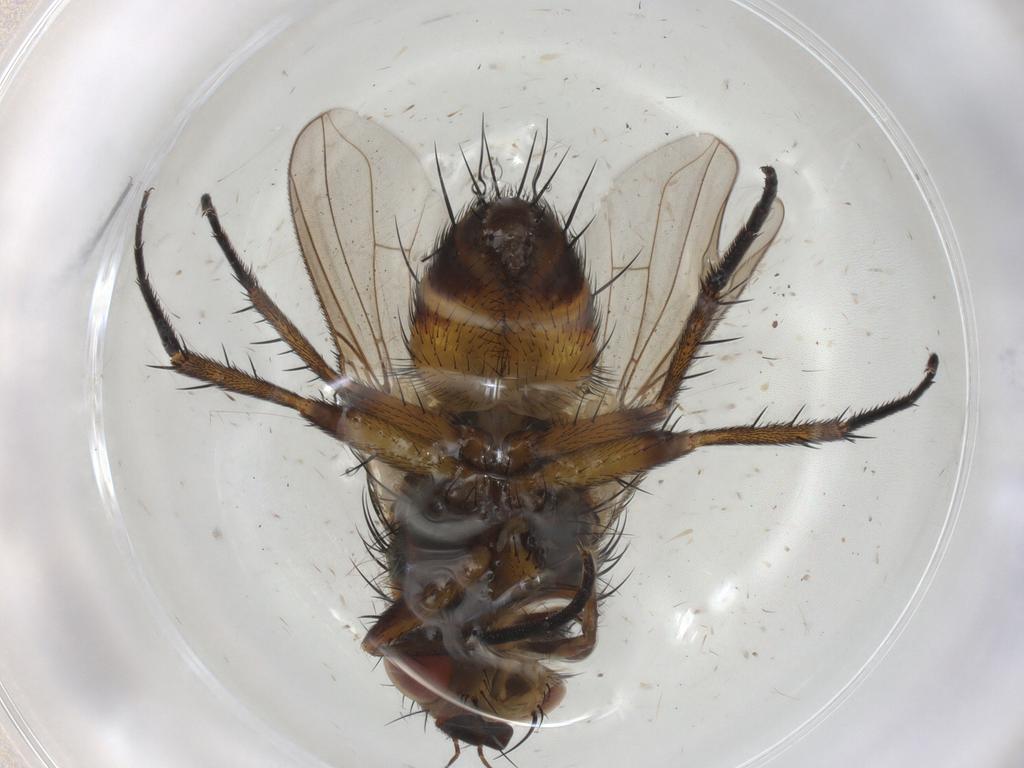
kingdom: Animalia
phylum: Arthropoda
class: Insecta
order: Diptera
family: Tachinidae
